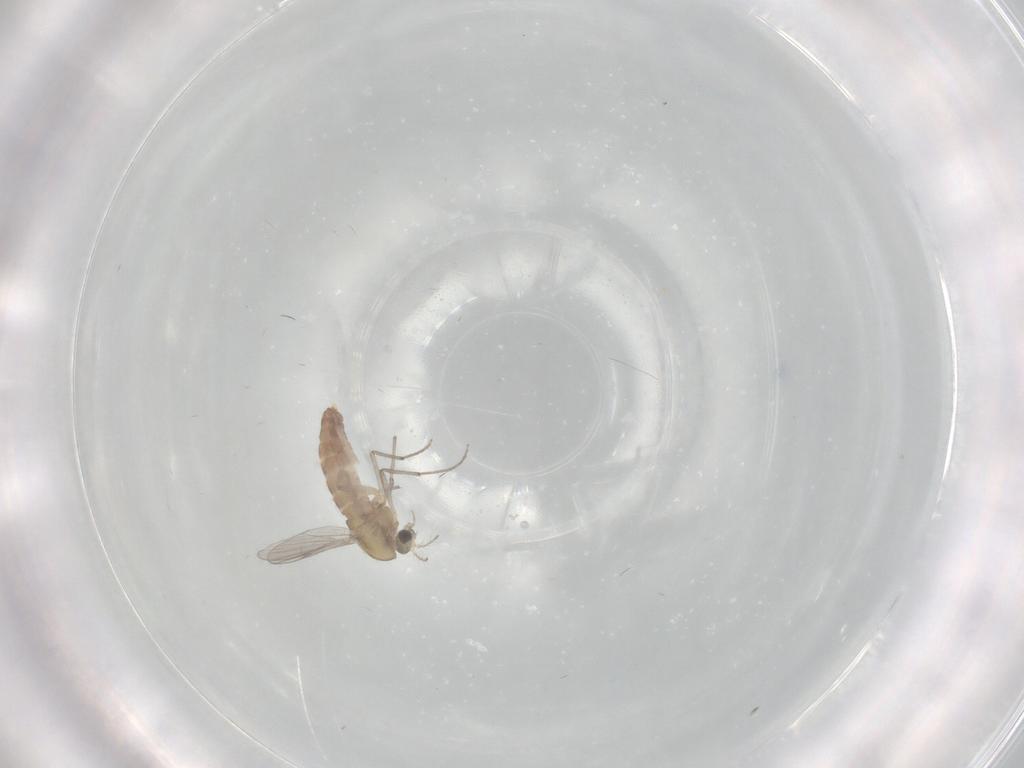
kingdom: Animalia
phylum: Arthropoda
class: Insecta
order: Diptera
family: Chironomidae
